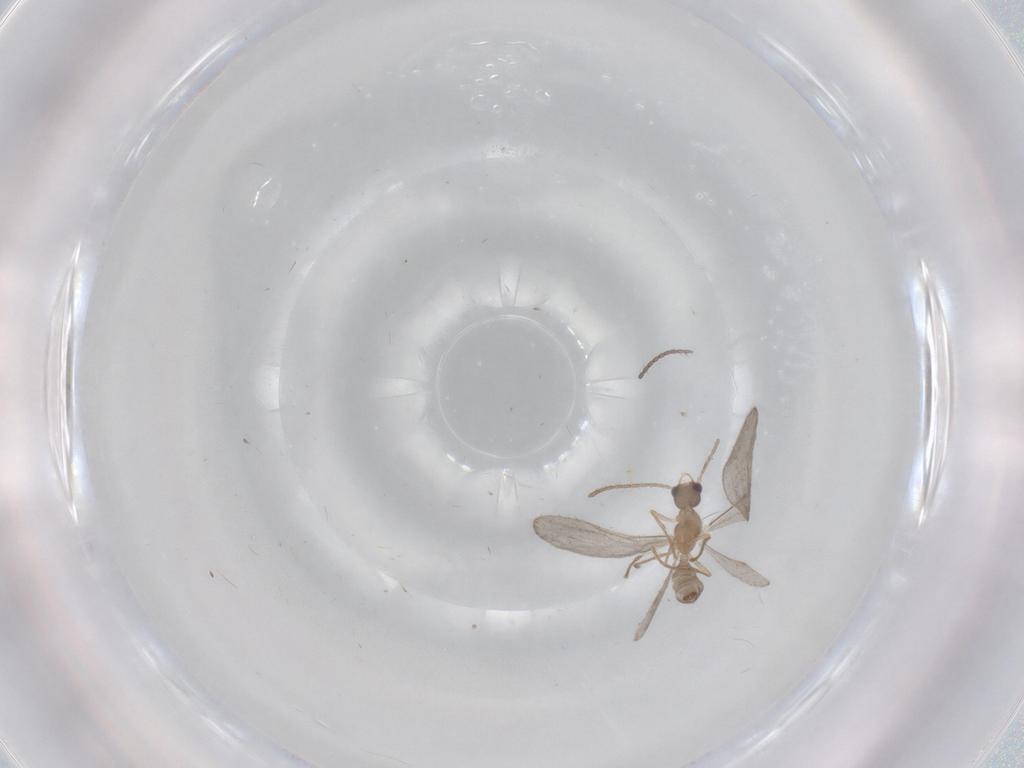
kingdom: Animalia
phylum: Arthropoda
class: Insecta
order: Hymenoptera
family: Formicidae
